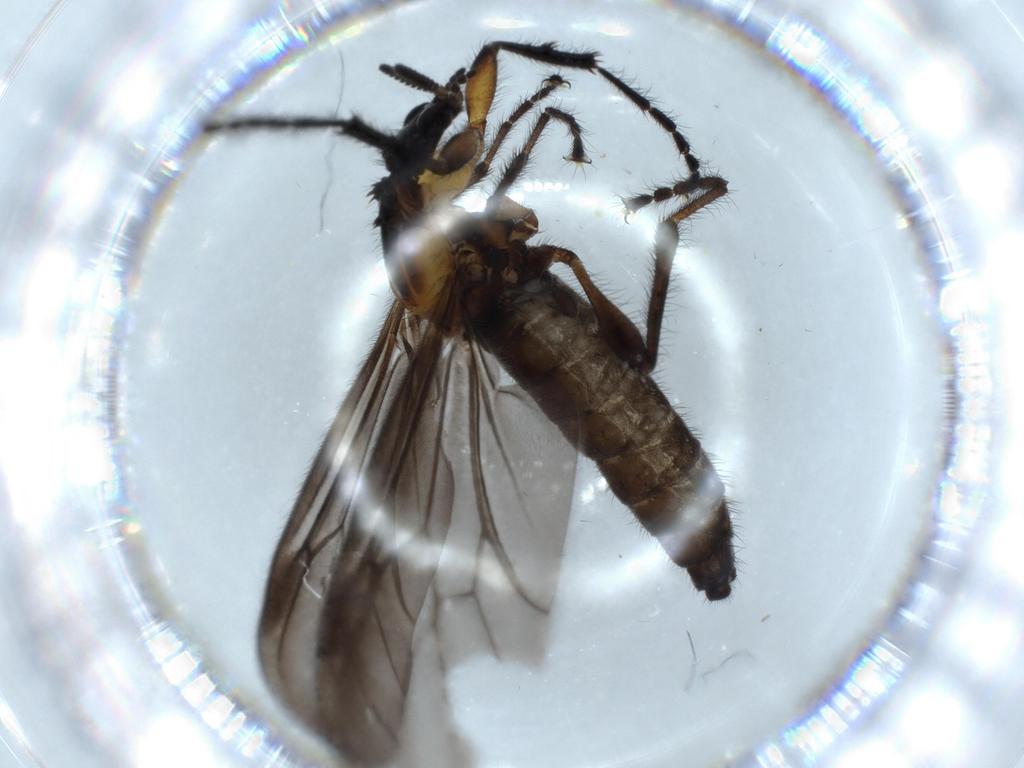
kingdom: Animalia
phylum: Arthropoda
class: Insecta
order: Diptera
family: Bibionidae
